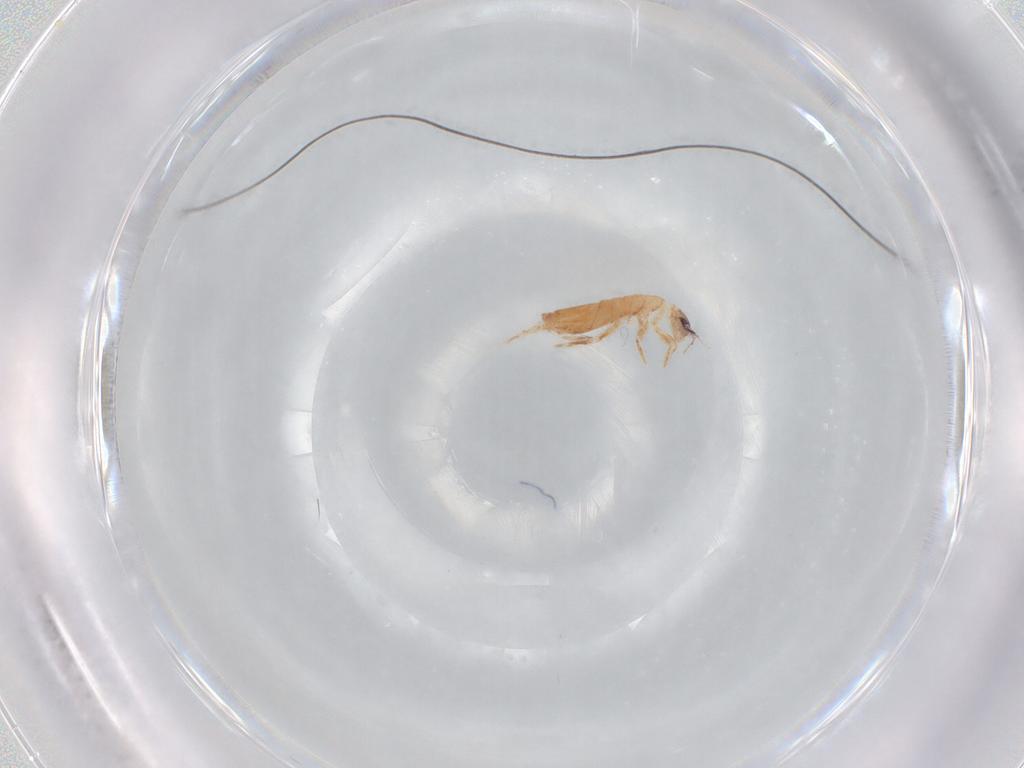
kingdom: Animalia
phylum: Arthropoda
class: Collembola
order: Entomobryomorpha
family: Entomobryidae
